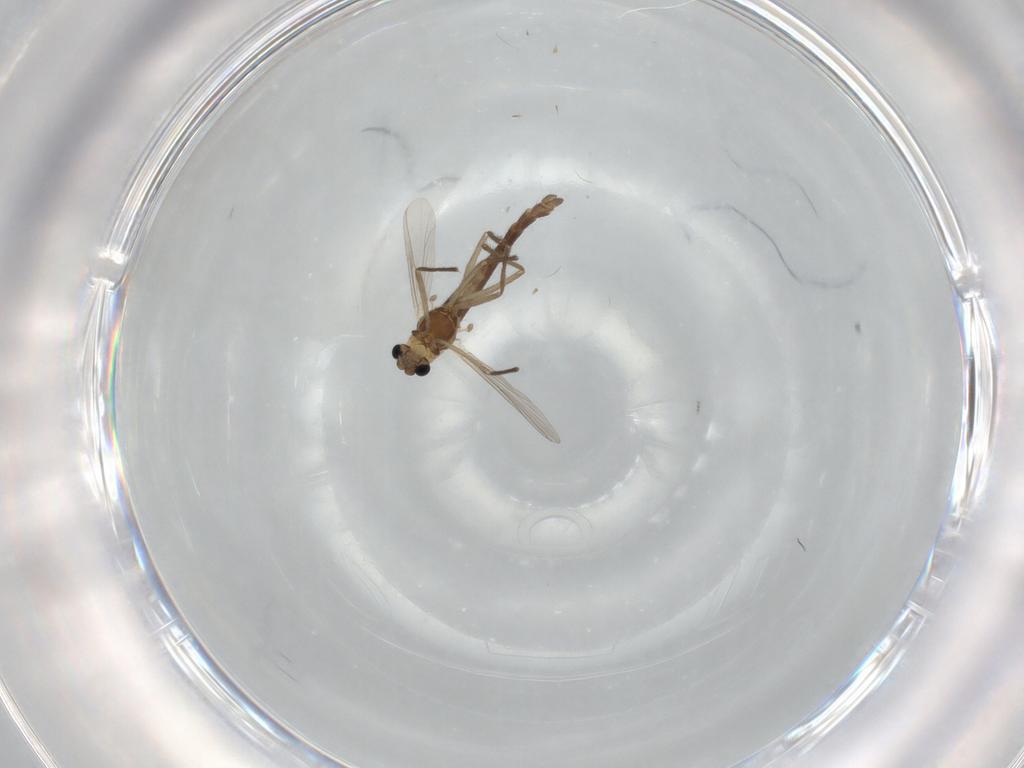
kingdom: Animalia
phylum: Arthropoda
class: Insecta
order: Diptera
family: Chironomidae
